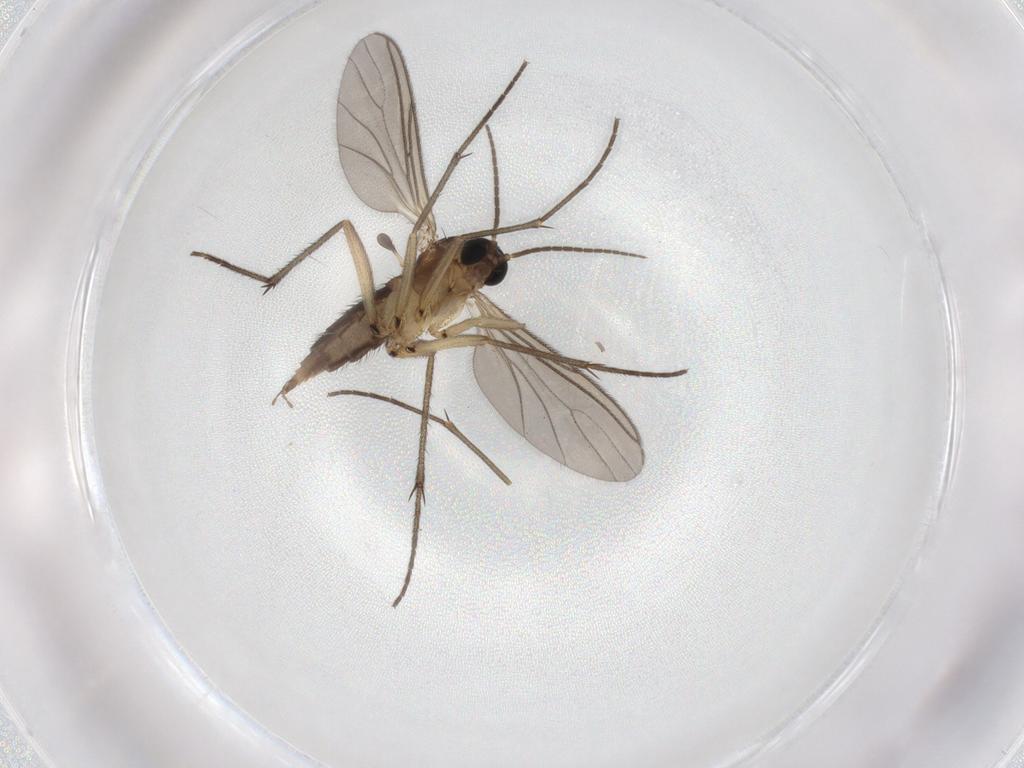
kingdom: Animalia
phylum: Arthropoda
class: Insecta
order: Diptera
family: Sciaridae
